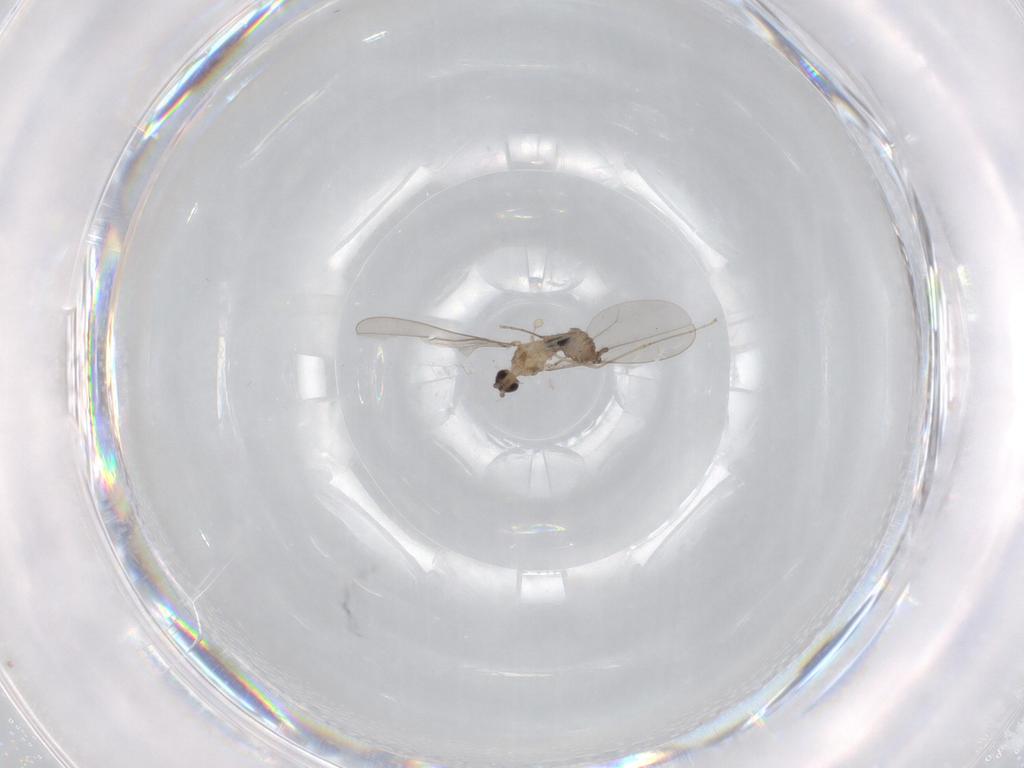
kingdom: Animalia
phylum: Arthropoda
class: Insecta
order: Diptera
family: Cecidomyiidae
